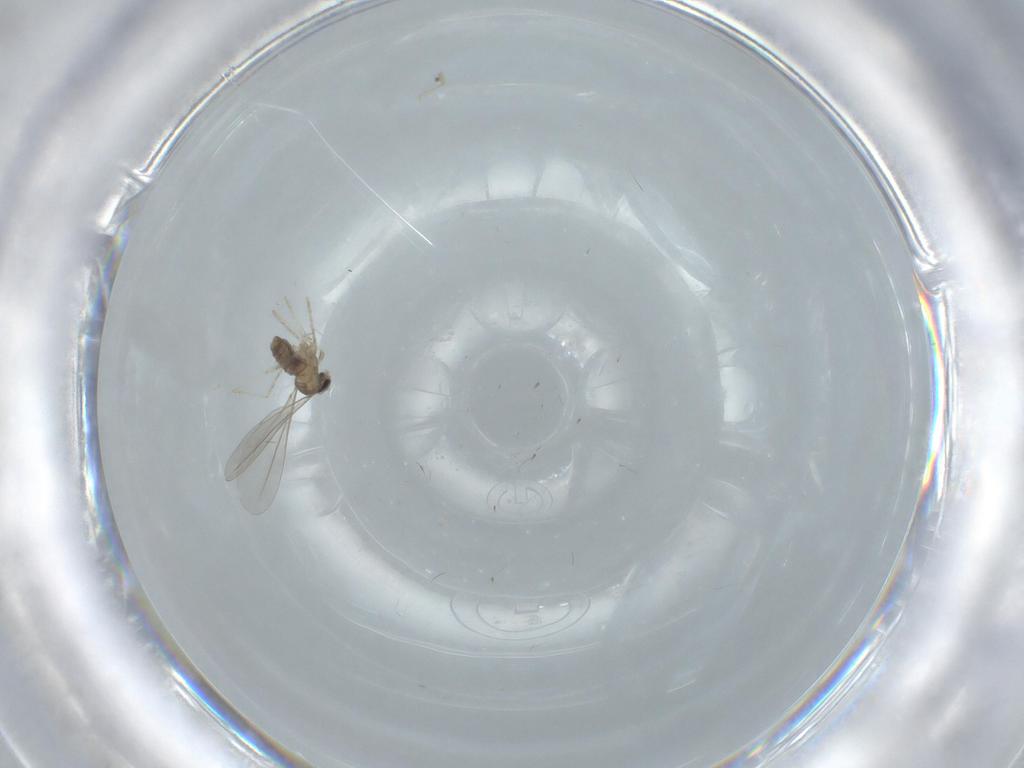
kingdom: Animalia
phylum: Arthropoda
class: Insecta
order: Diptera
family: Cecidomyiidae
